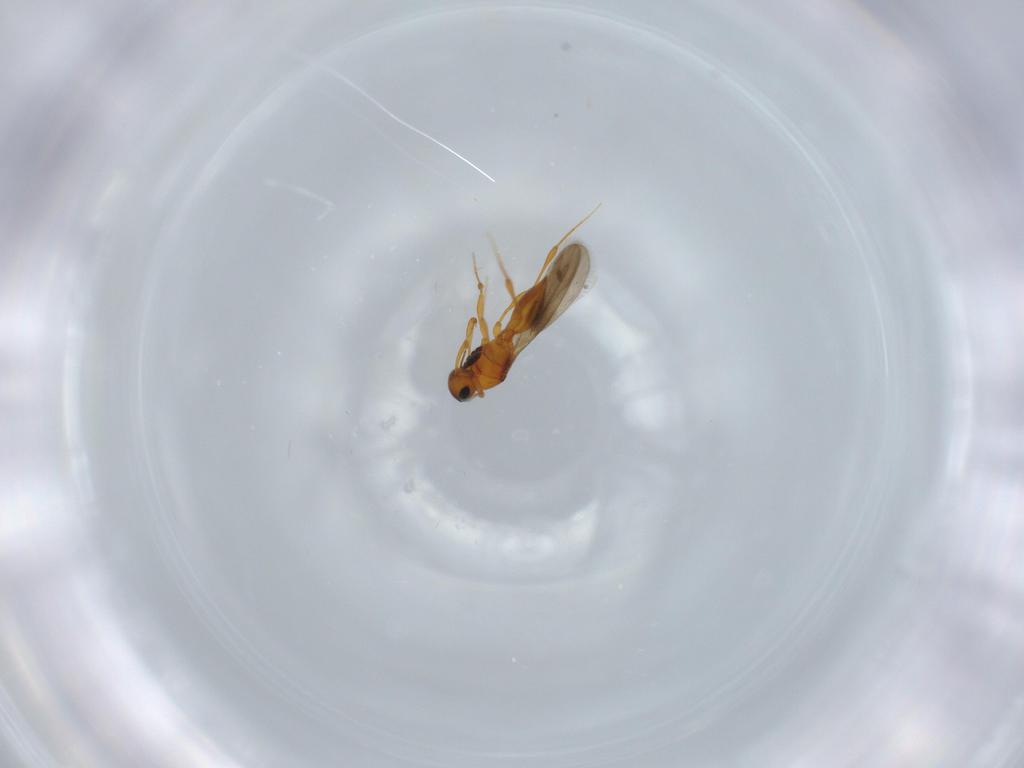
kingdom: Animalia
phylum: Arthropoda
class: Insecta
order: Hymenoptera
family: Platygastridae
